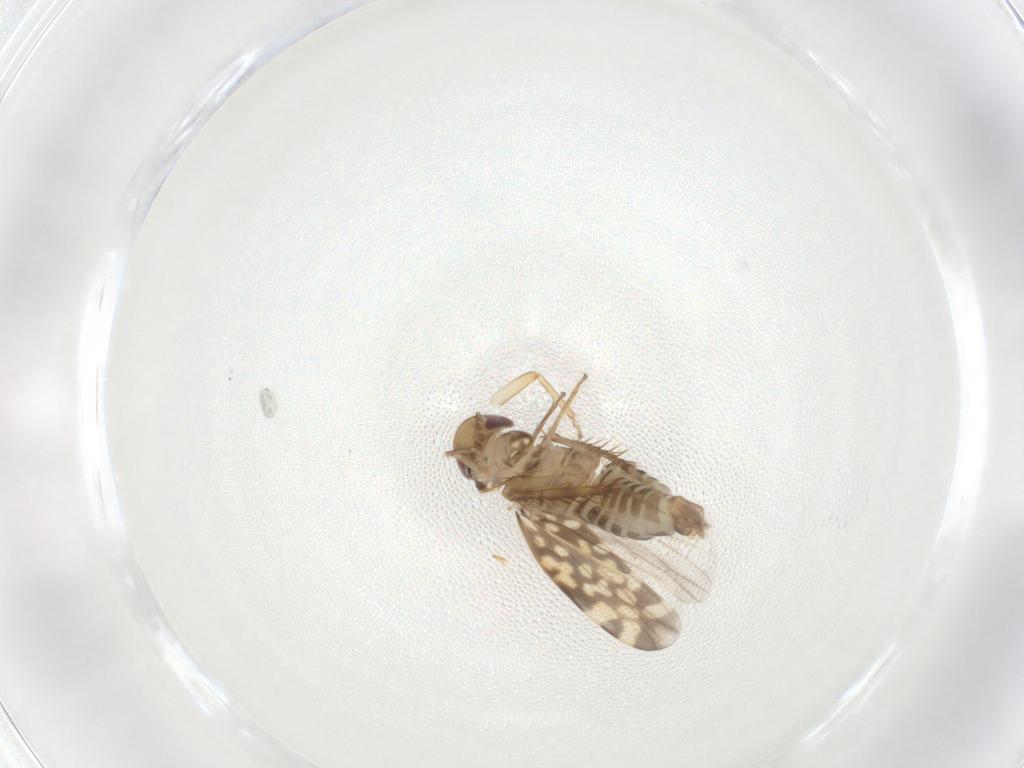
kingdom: Animalia
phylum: Arthropoda
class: Insecta
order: Hemiptera
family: Cicadellidae
